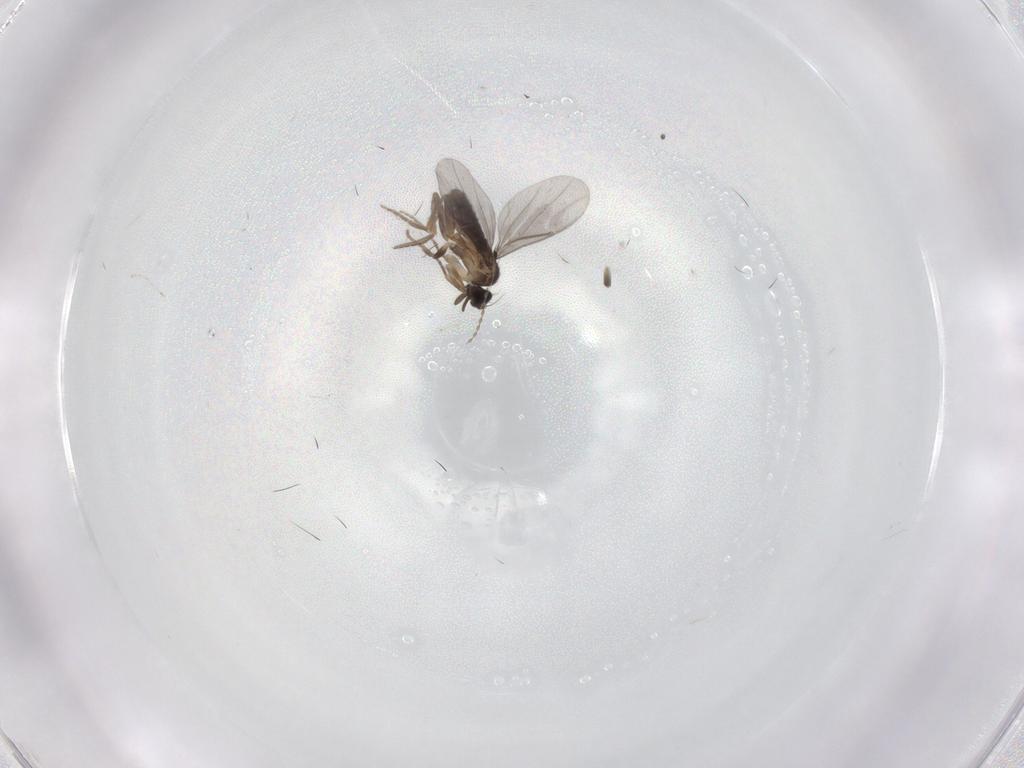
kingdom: Animalia
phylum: Arthropoda
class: Insecta
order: Diptera
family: Dolichopodidae
